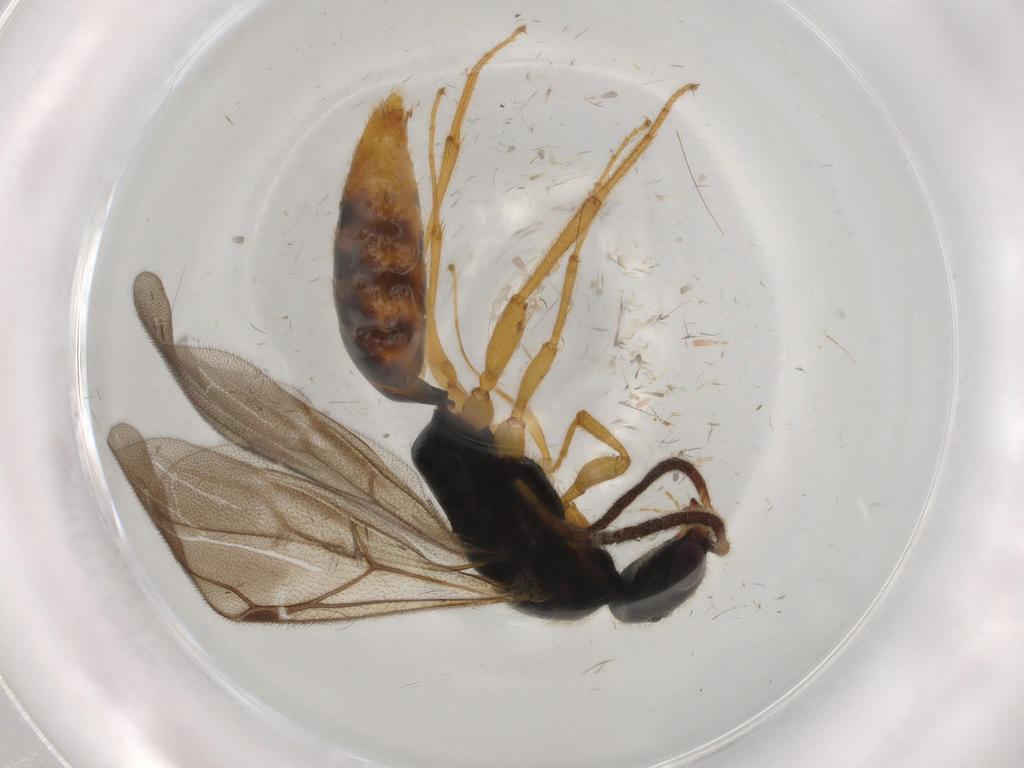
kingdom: Animalia
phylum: Arthropoda
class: Insecta
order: Hymenoptera
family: Bethylidae
